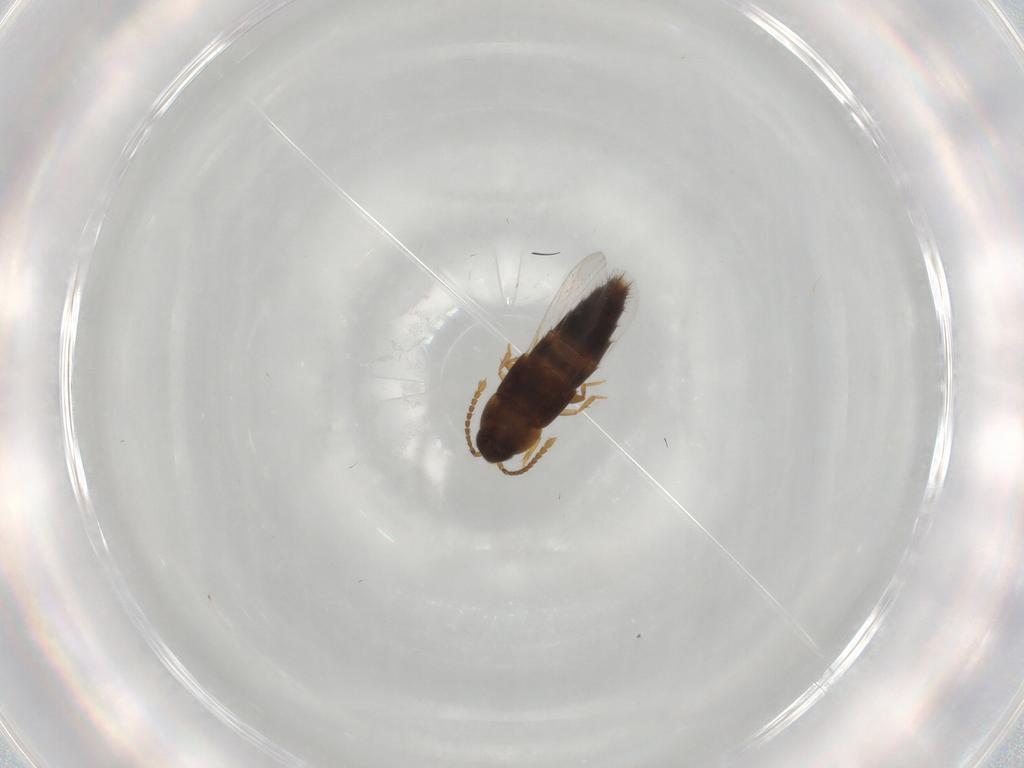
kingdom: Animalia
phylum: Arthropoda
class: Insecta
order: Coleoptera
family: Staphylinidae
